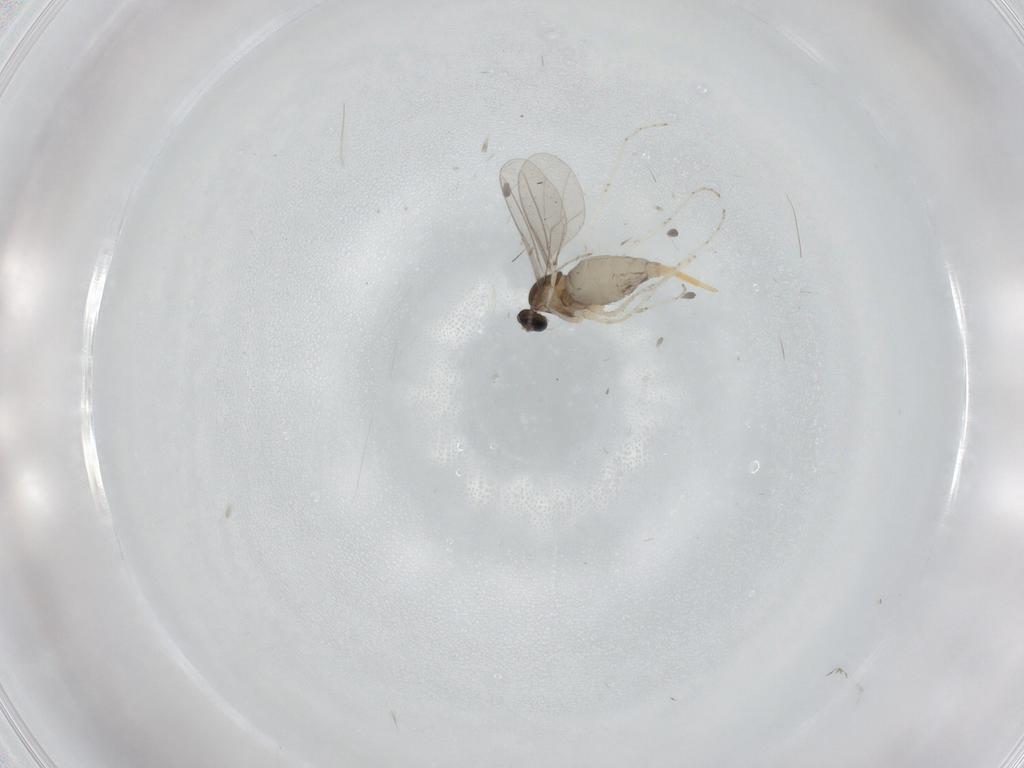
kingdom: Animalia
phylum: Arthropoda
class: Insecta
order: Diptera
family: Cecidomyiidae
